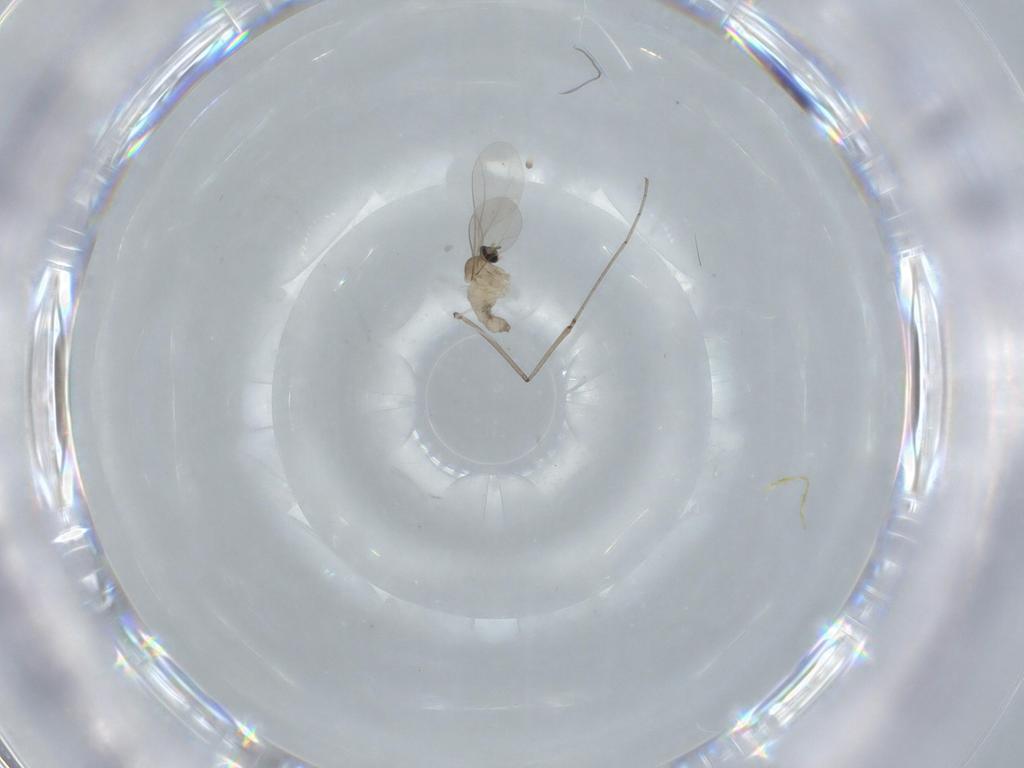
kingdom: Animalia
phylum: Arthropoda
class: Insecta
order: Diptera
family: Cecidomyiidae
